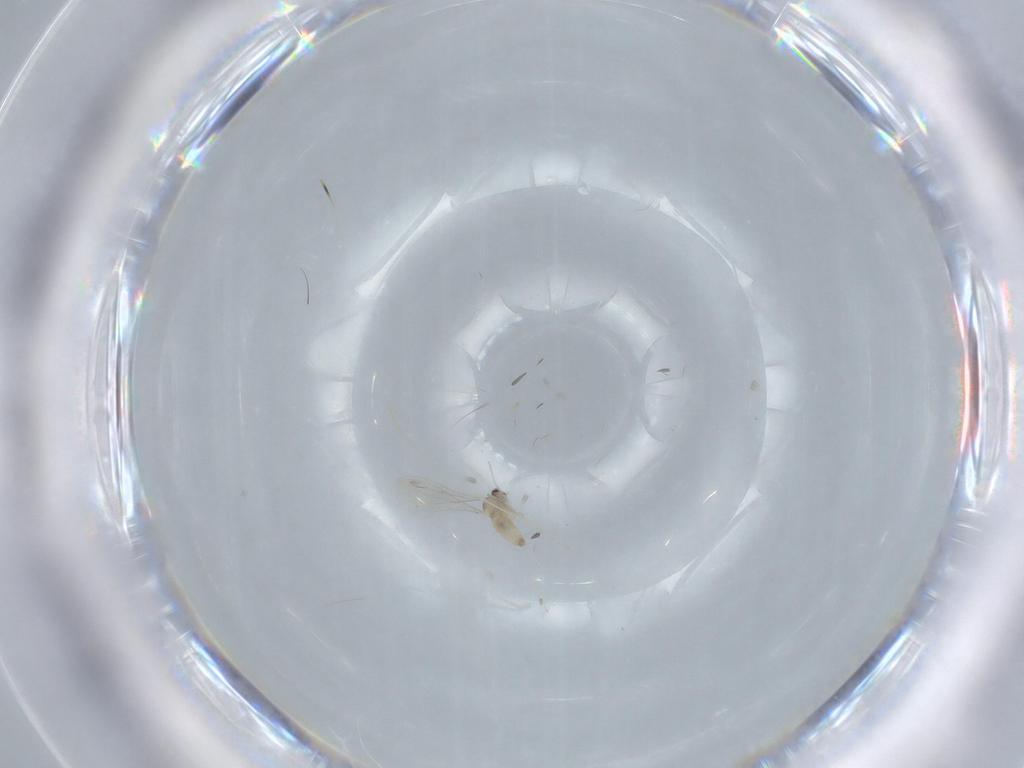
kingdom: Animalia
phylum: Arthropoda
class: Insecta
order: Diptera
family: Cecidomyiidae
